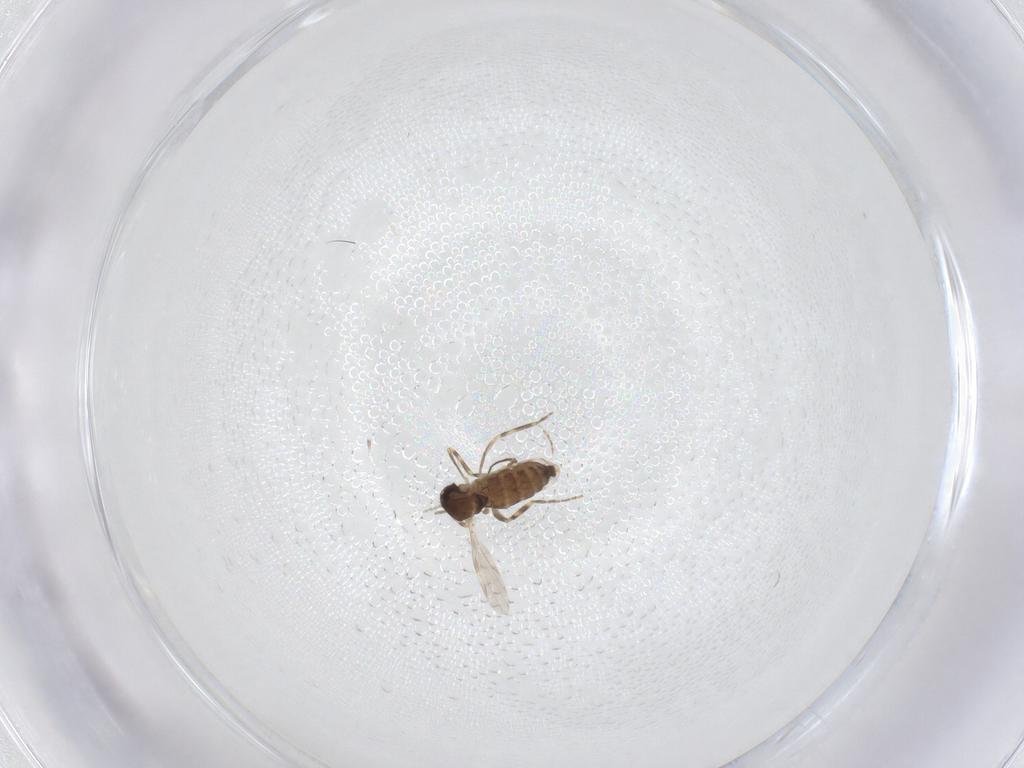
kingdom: Animalia
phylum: Arthropoda
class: Insecta
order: Diptera
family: Ceratopogonidae
